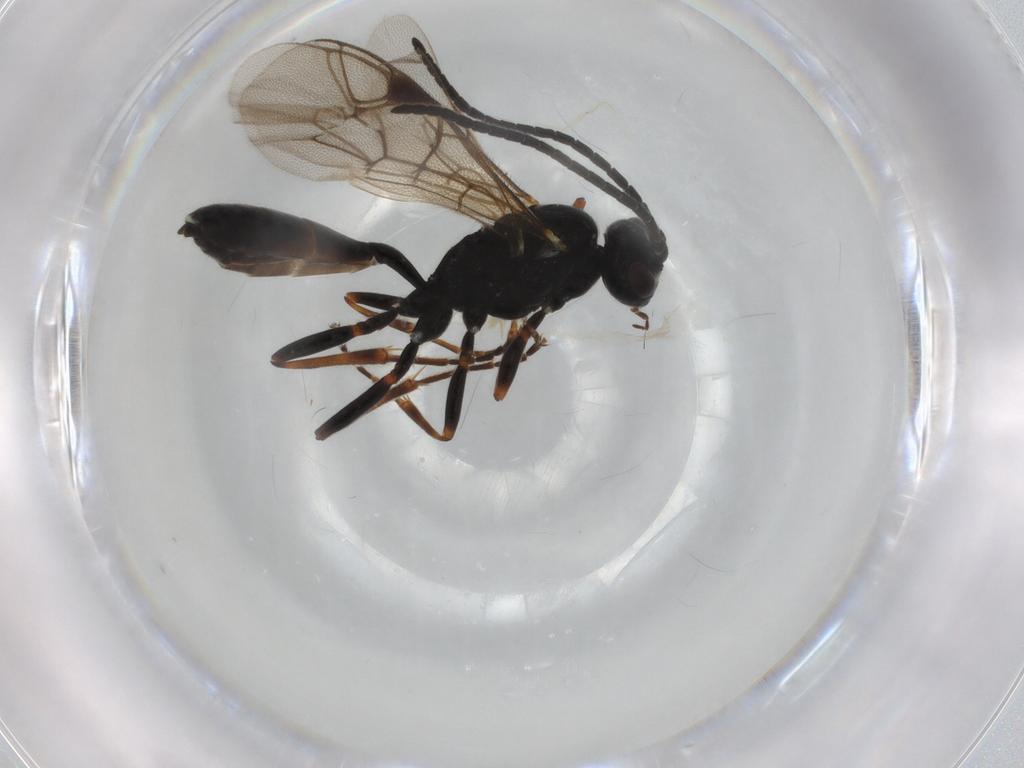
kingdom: Animalia
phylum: Arthropoda
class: Insecta
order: Hymenoptera
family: Ichneumonidae
